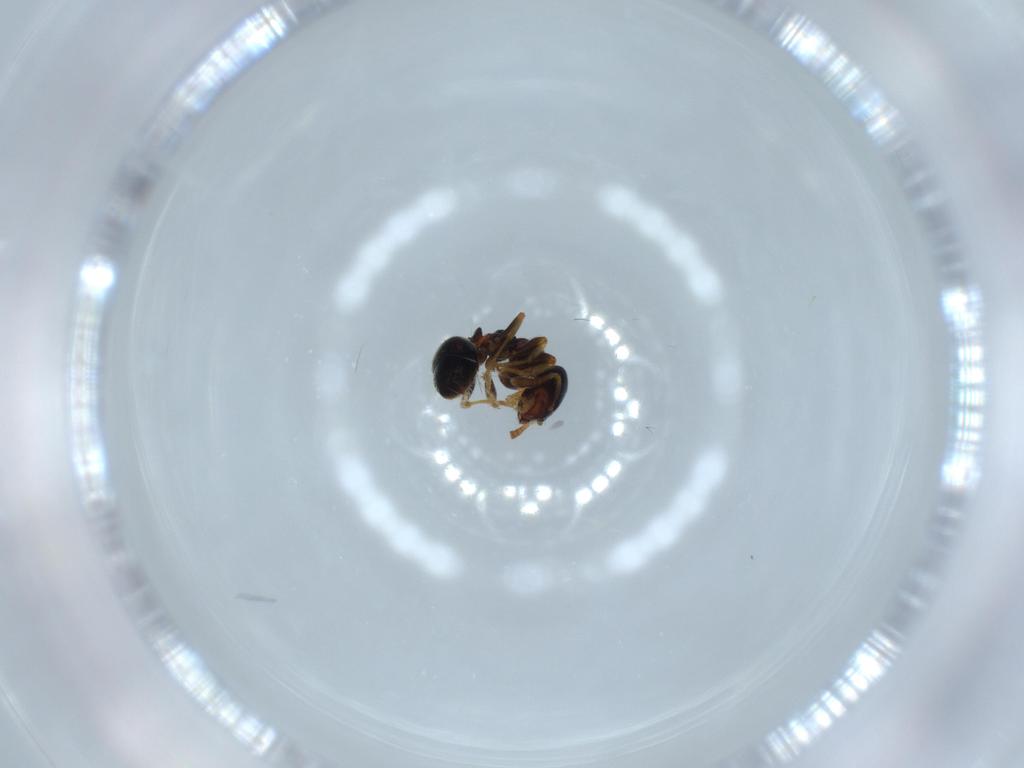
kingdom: Animalia
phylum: Arthropoda
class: Insecta
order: Hymenoptera
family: Formicidae
